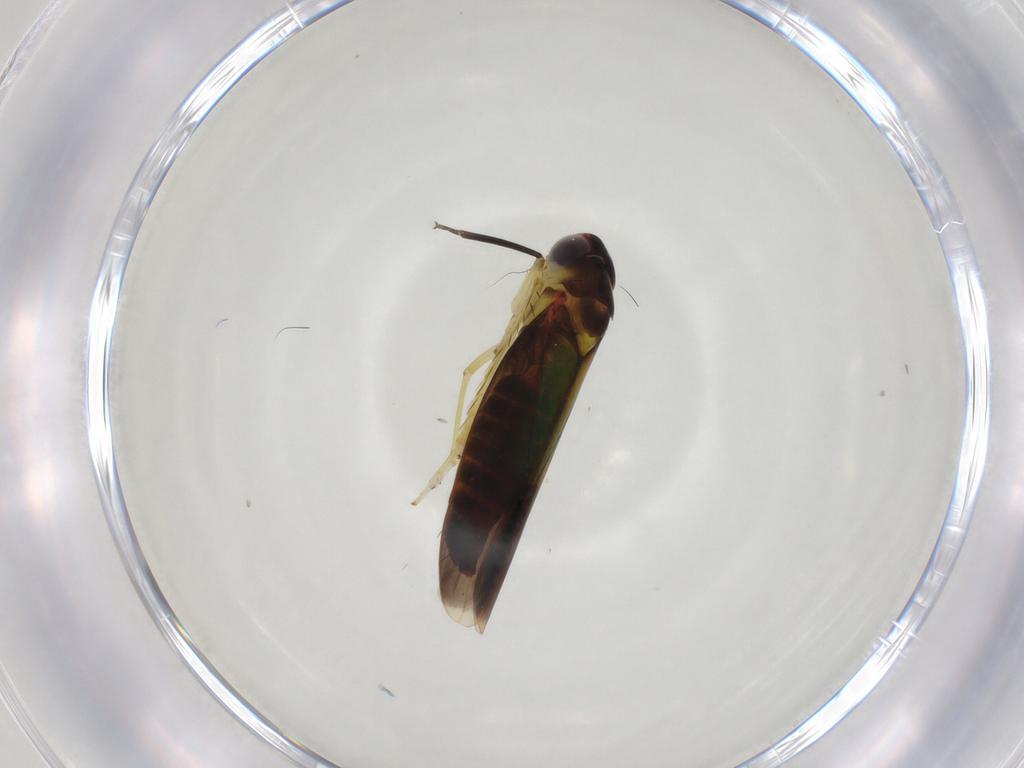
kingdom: Animalia
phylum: Arthropoda
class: Insecta
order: Hemiptera
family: Cicadellidae
